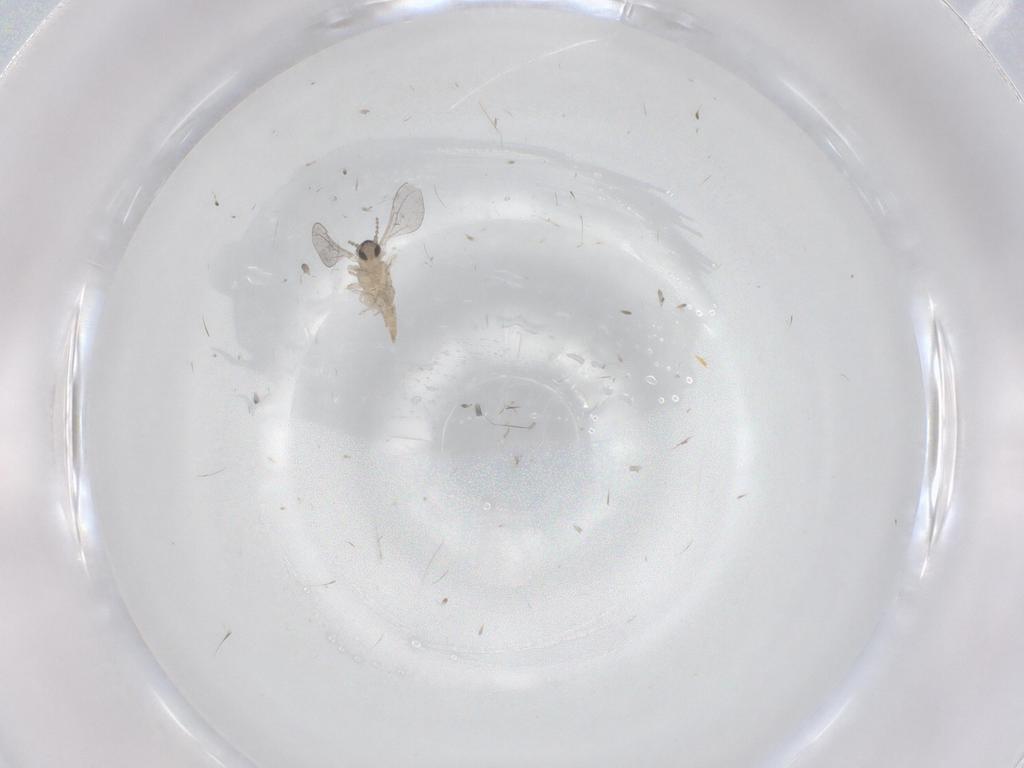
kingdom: Animalia
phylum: Arthropoda
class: Insecta
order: Diptera
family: Cecidomyiidae
